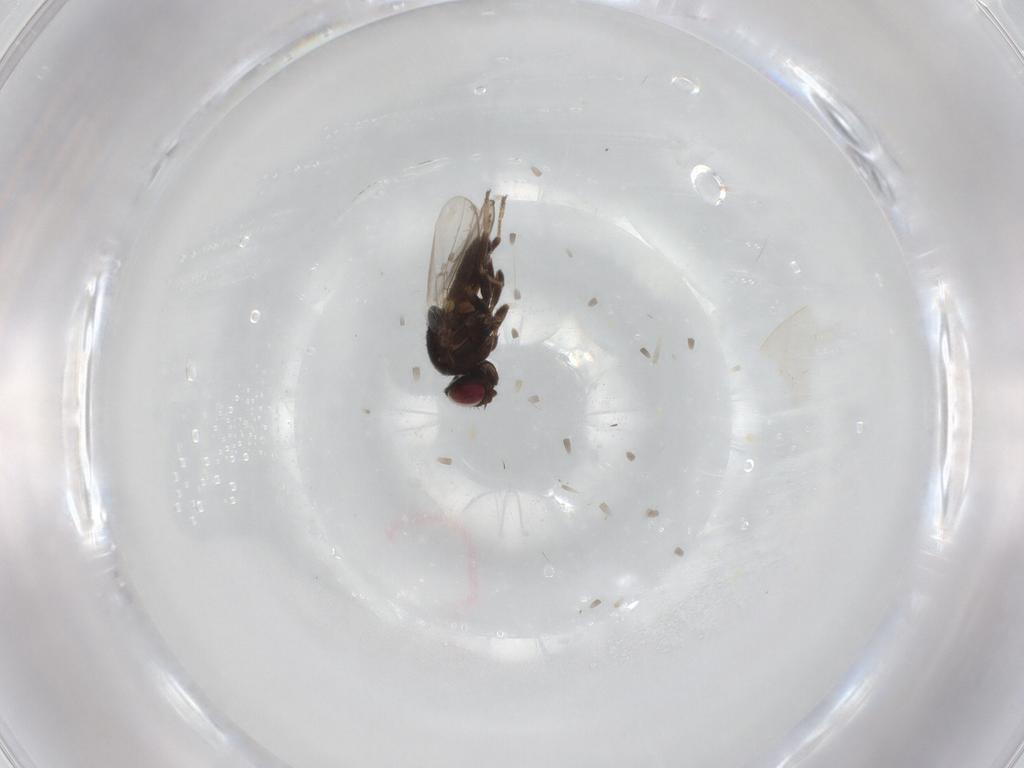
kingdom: Animalia
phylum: Arthropoda
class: Insecta
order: Diptera
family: Chloropidae
